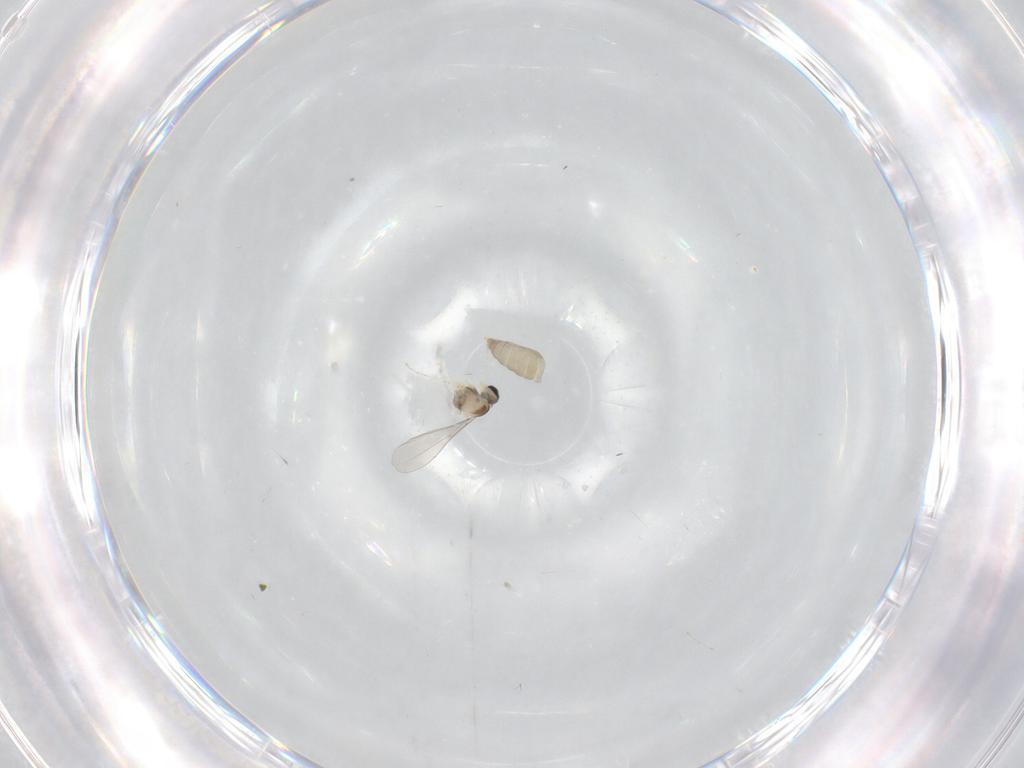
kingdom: Animalia
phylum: Arthropoda
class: Insecta
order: Diptera
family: Cecidomyiidae
